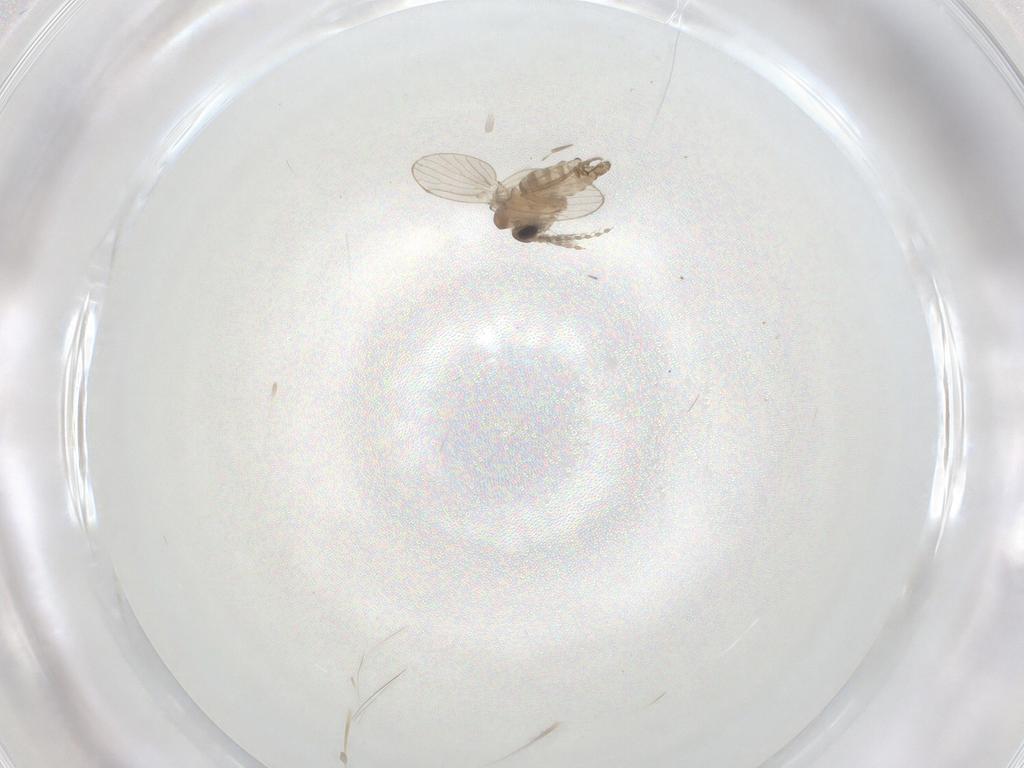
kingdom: Animalia
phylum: Arthropoda
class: Insecta
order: Diptera
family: Cecidomyiidae
